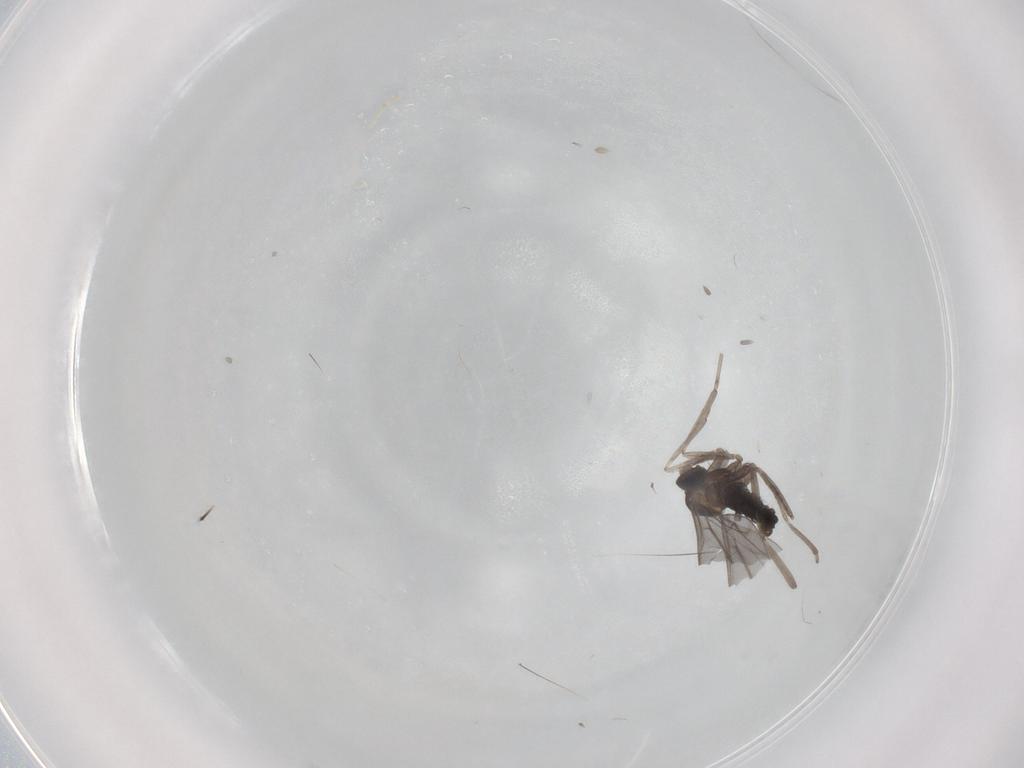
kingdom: Animalia
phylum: Arthropoda
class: Insecta
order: Diptera
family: Cecidomyiidae
